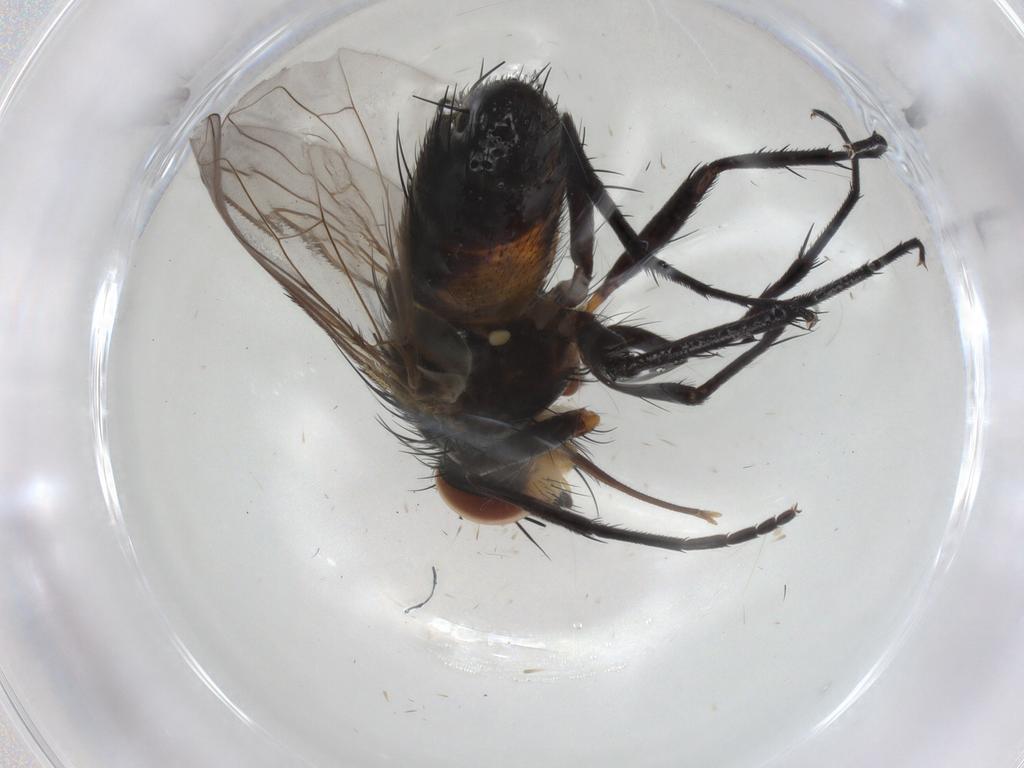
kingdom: Animalia
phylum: Arthropoda
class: Insecta
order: Diptera
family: Tachinidae
